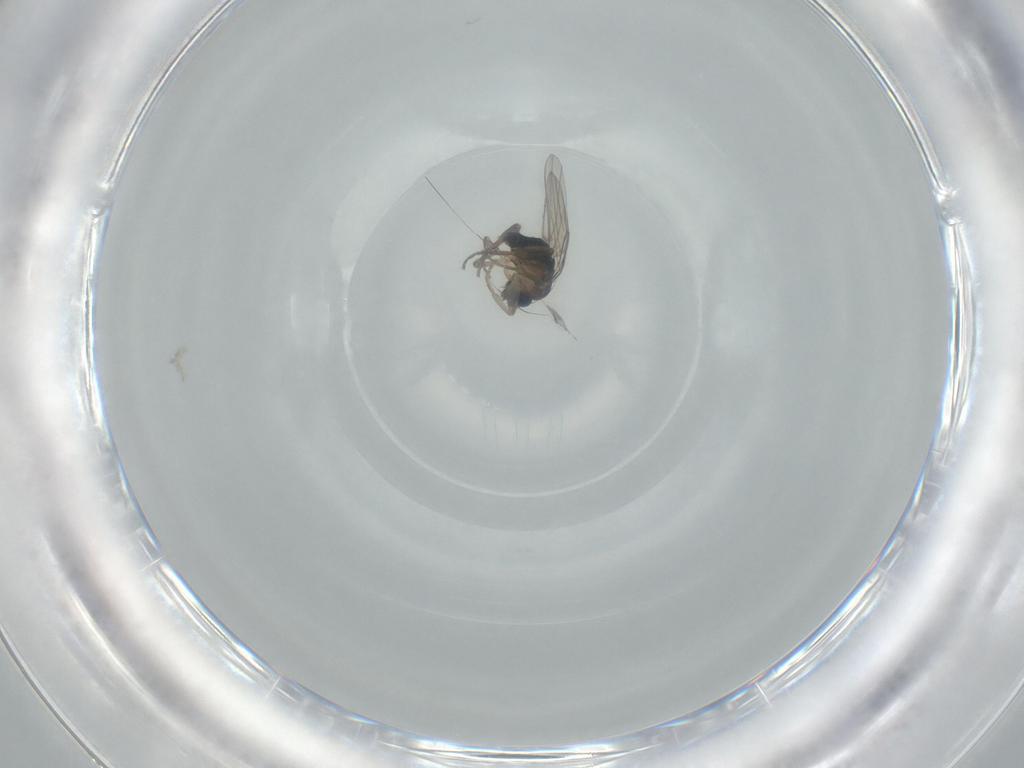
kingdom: Animalia
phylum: Arthropoda
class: Insecta
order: Diptera
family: Phoridae
